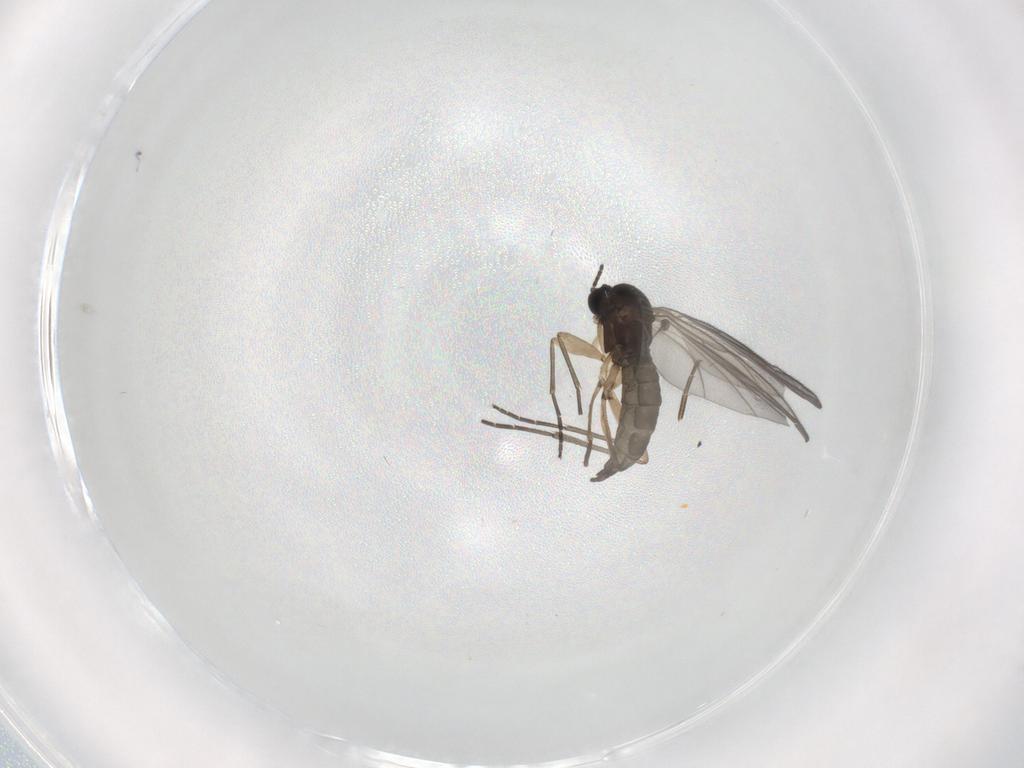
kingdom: Animalia
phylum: Arthropoda
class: Insecta
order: Diptera
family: Sciaridae
